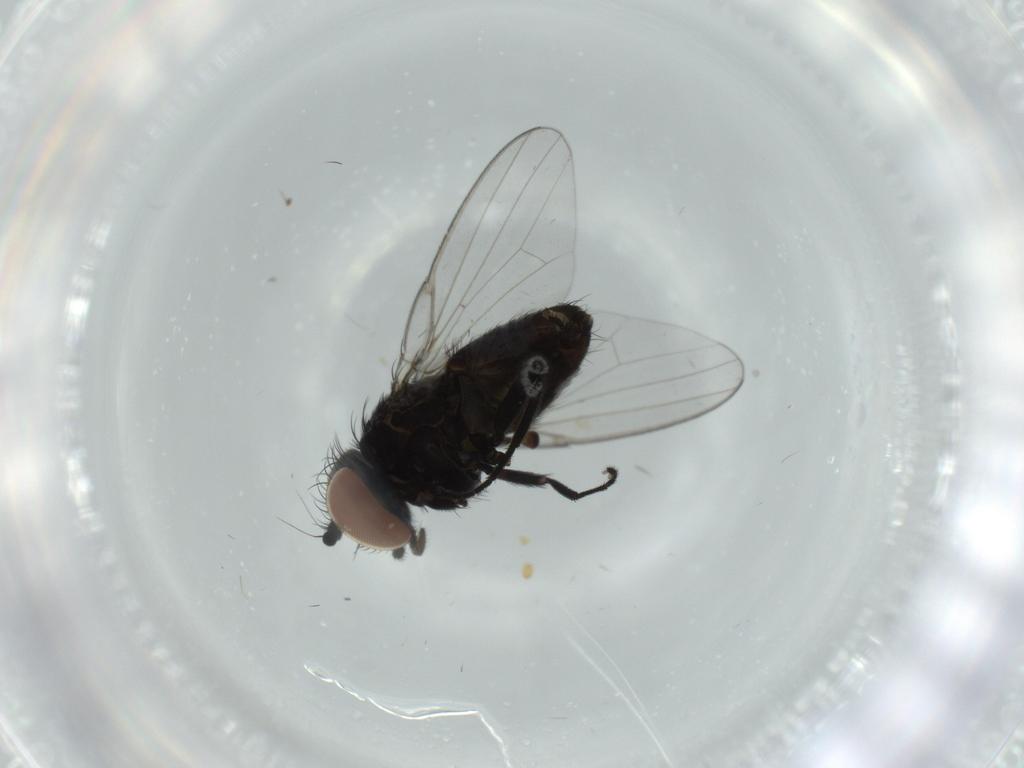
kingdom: Animalia
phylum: Arthropoda
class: Insecta
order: Diptera
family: Milichiidae
